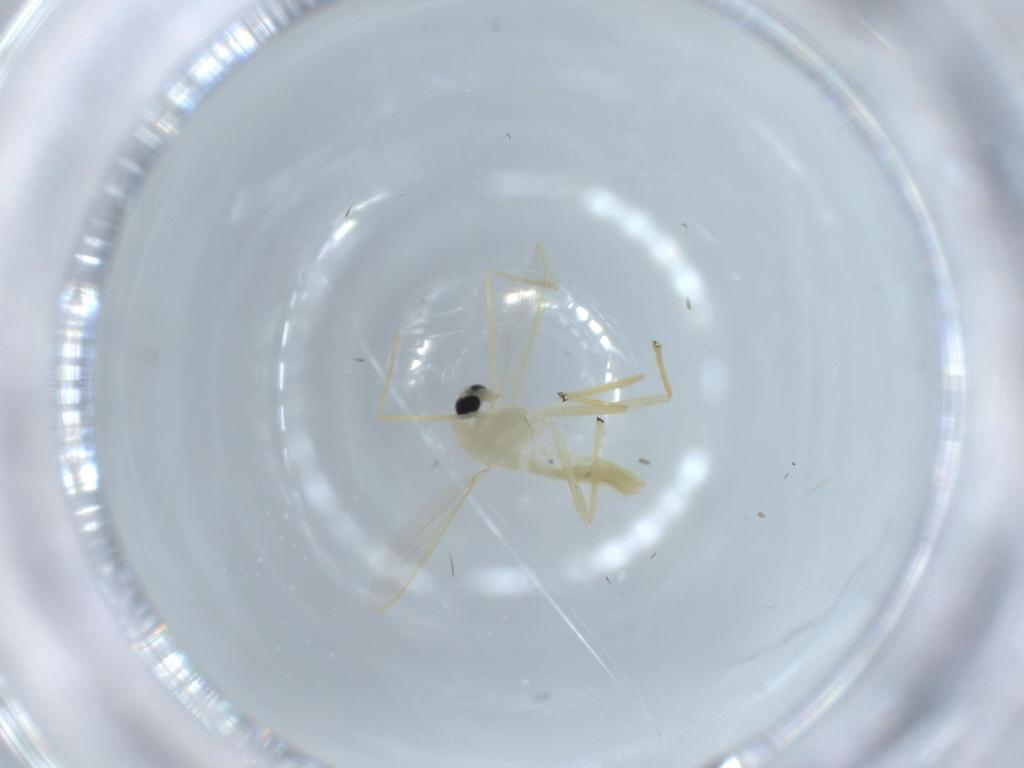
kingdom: Animalia
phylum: Arthropoda
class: Insecta
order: Diptera
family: Chironomidae
